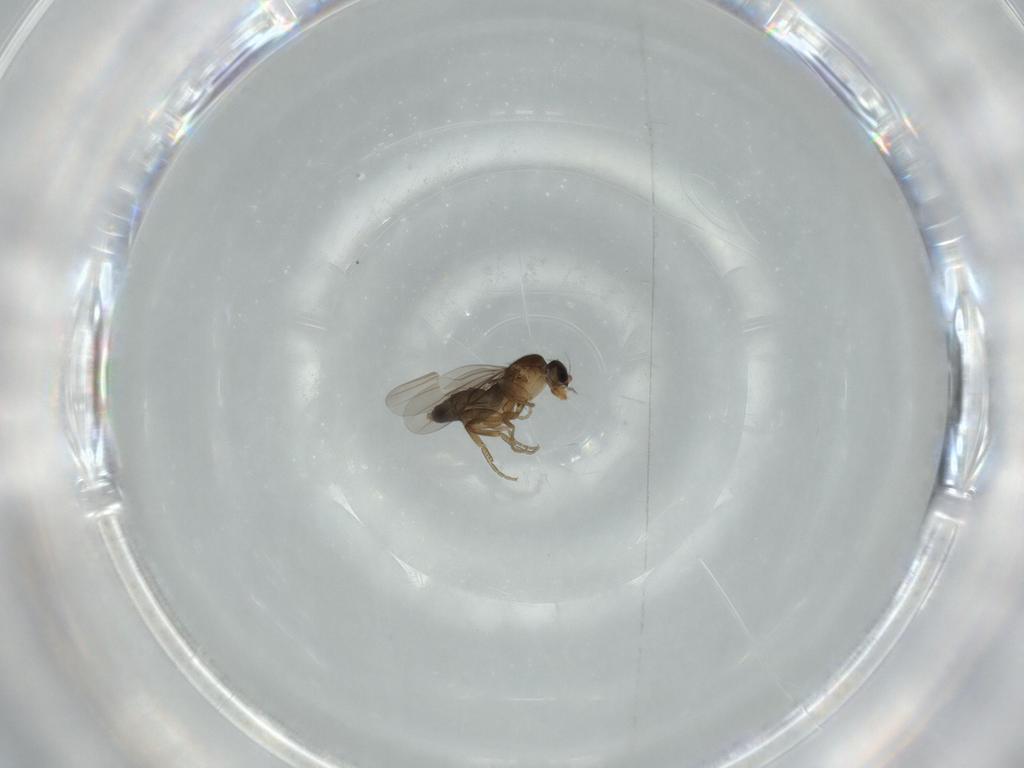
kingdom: Animalia
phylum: Arthropoda
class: Insecta
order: Diptera
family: Phoridae
